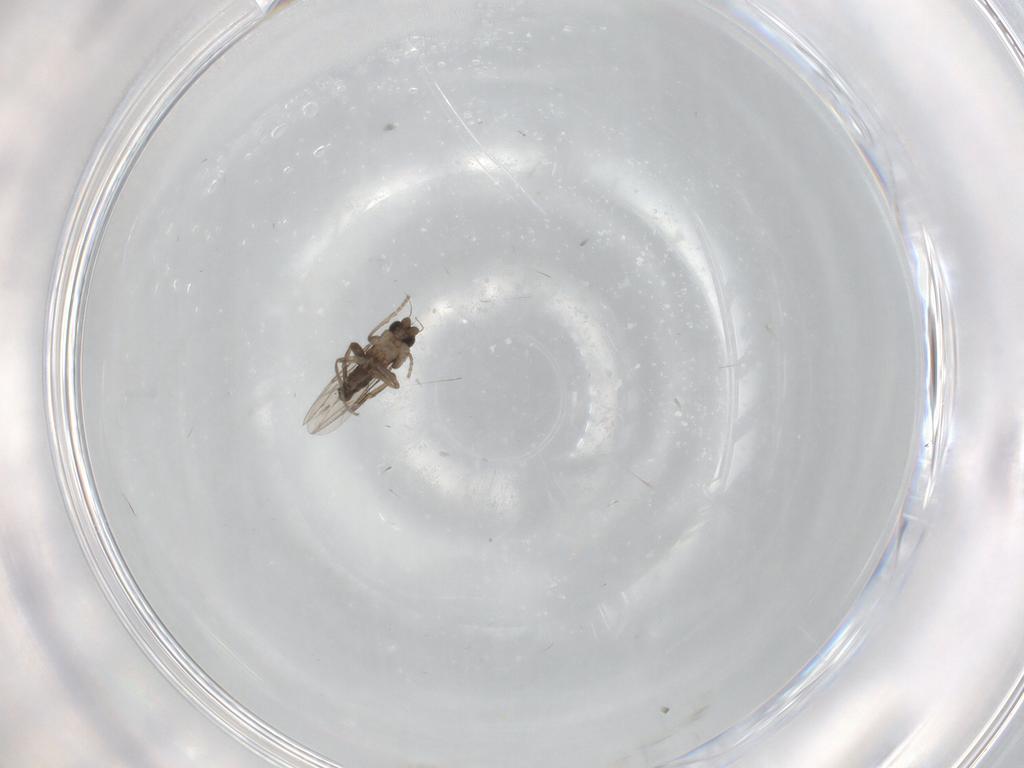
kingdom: Animalia
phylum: Arthropoda
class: Insecta
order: Diptera
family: Phoridae
